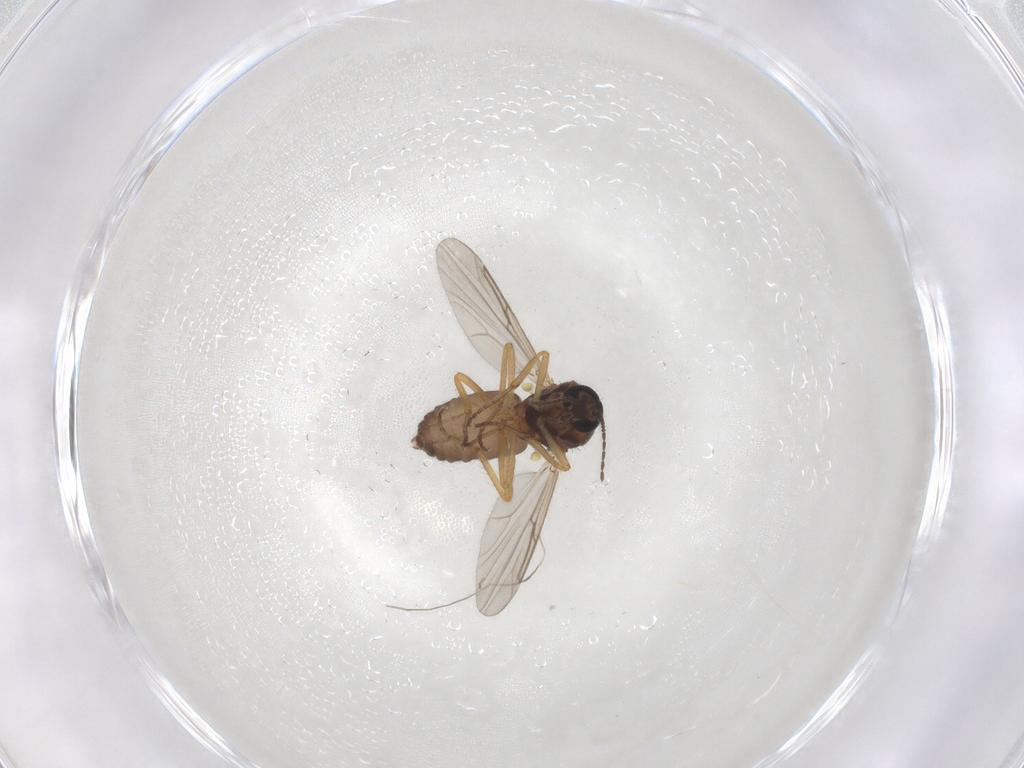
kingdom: Animalia
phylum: Arthropoda
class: Insecta
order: Diptera
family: Ceratopogonidae
